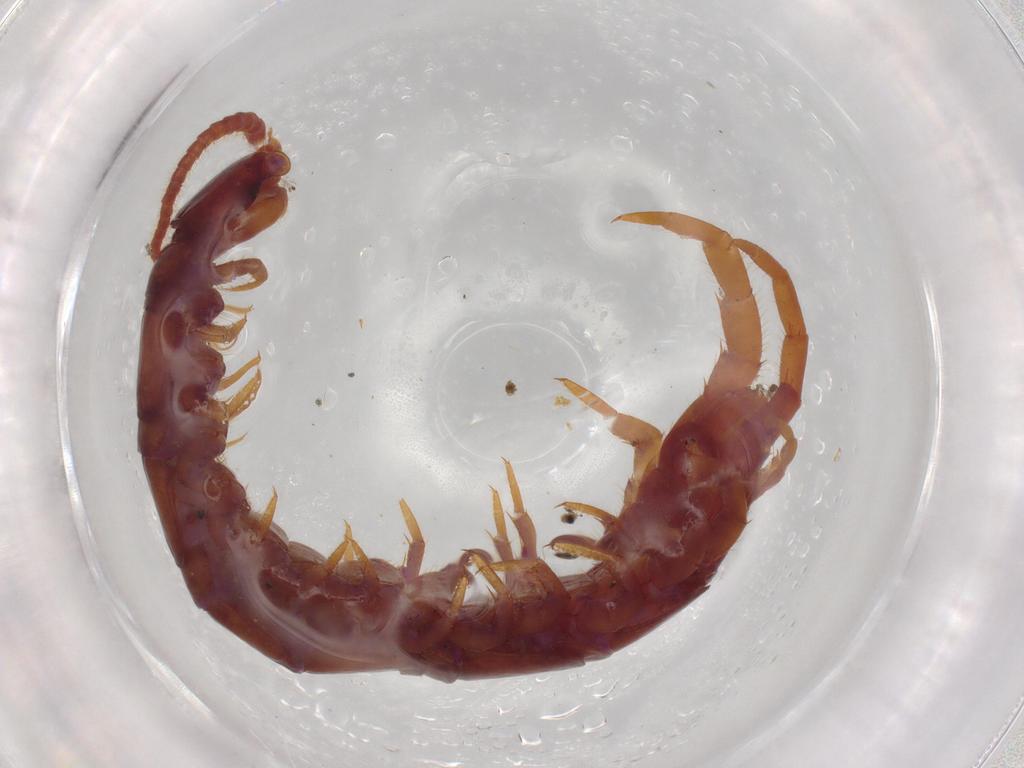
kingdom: Animalia
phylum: Arthropoda
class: Chilopoda
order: Lithobiomorpha
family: Lithobiidae
